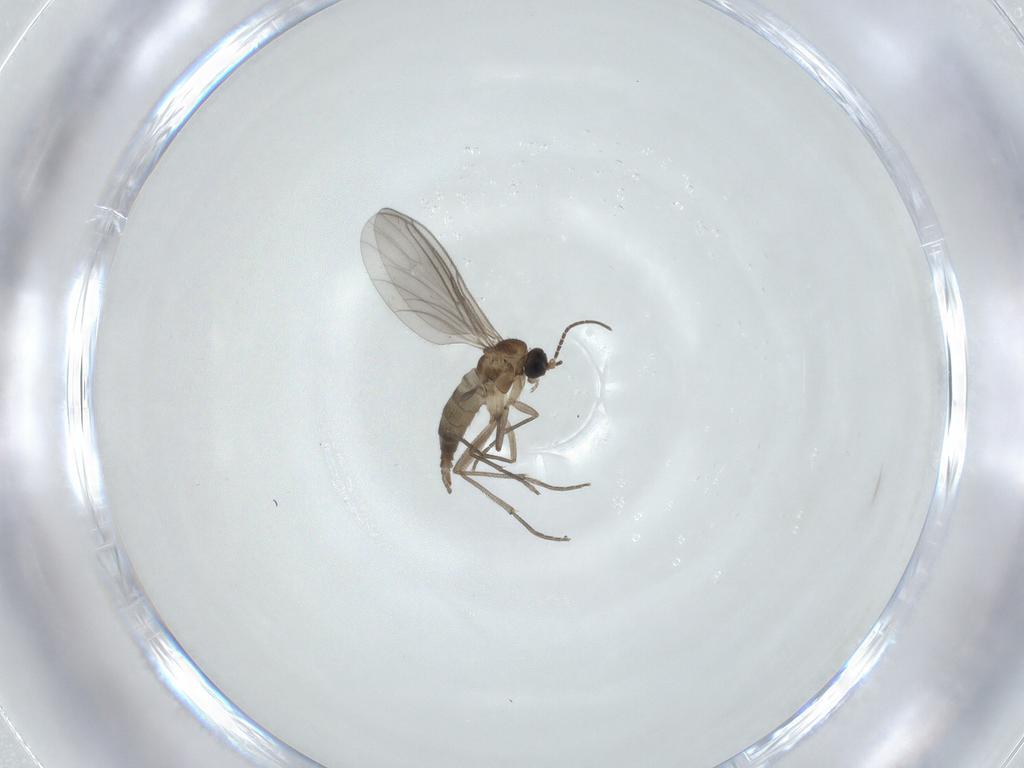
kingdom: Animalia
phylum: Arthropoda
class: Insecta
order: Diptera
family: Sciaridae
